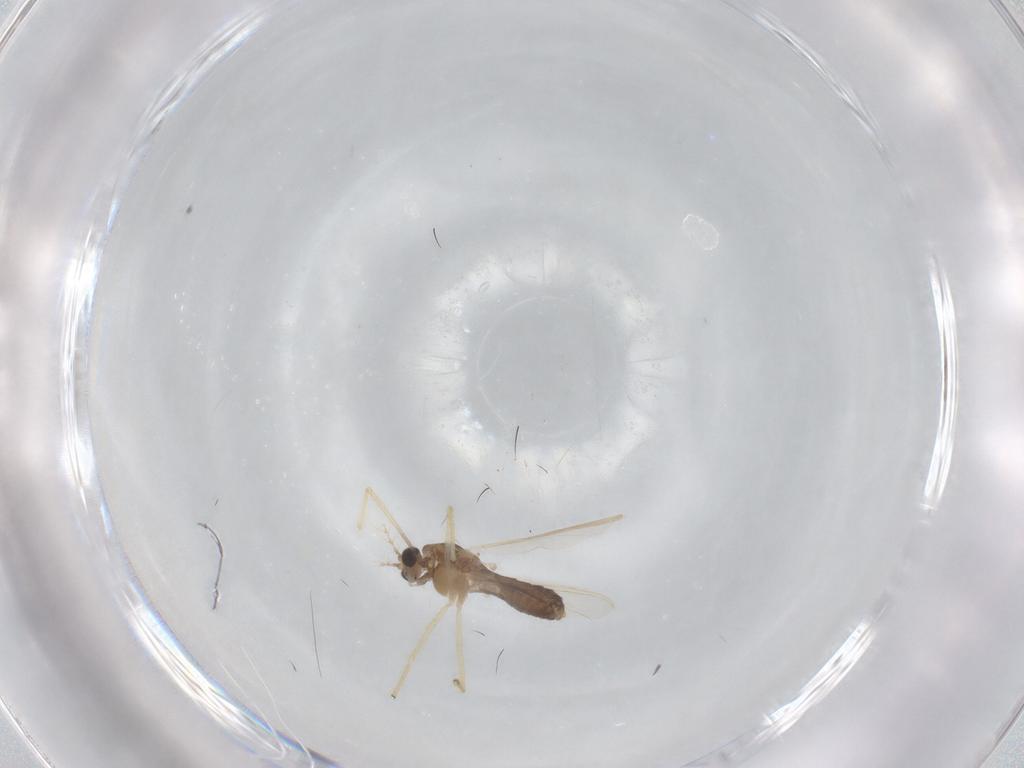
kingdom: Animalia
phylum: Arthropoda
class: Insecta
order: Diptera
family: Chironomidae
